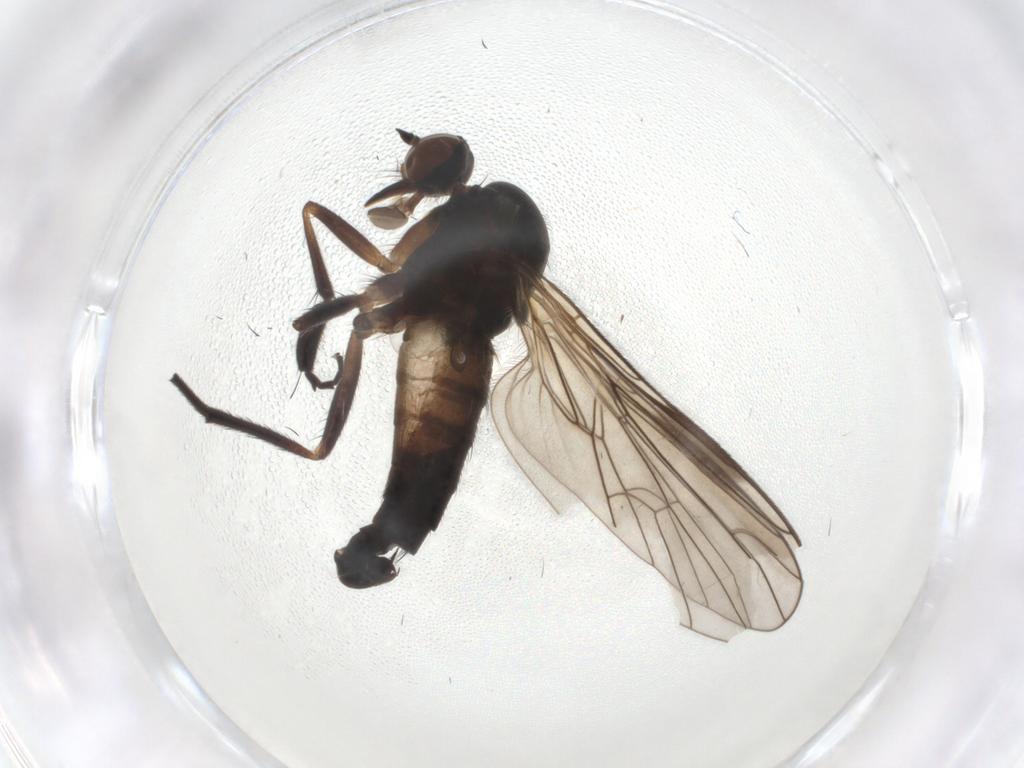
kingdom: Animalia
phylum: Arthropoda
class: Insecta
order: Diptera
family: Empididae
